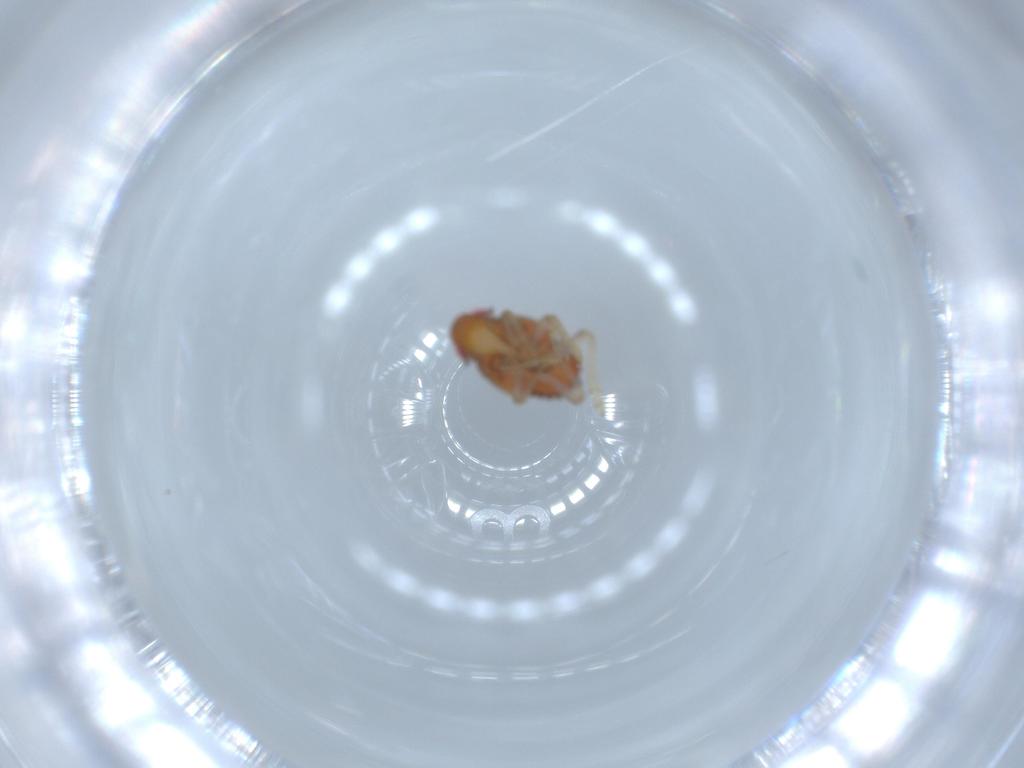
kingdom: Animalia
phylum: Arthropoda
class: Insecta
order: Hemiptera
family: Issidae
